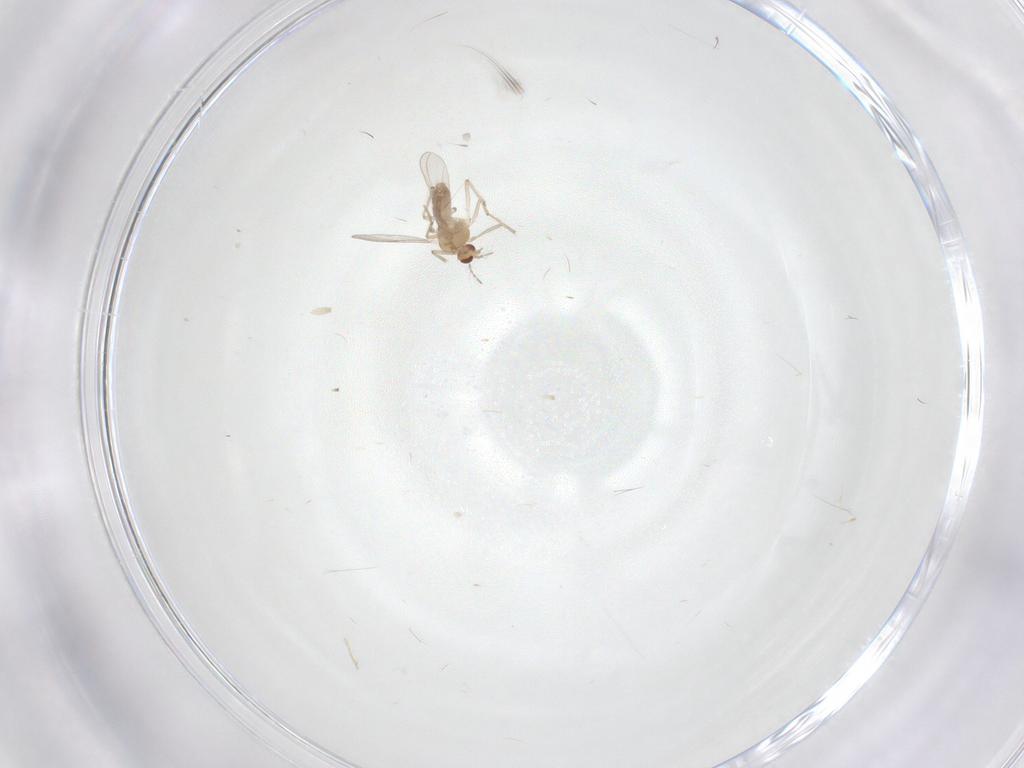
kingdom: Animalia
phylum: Arthropoda
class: Insecta
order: Diptera
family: Chironomidae
